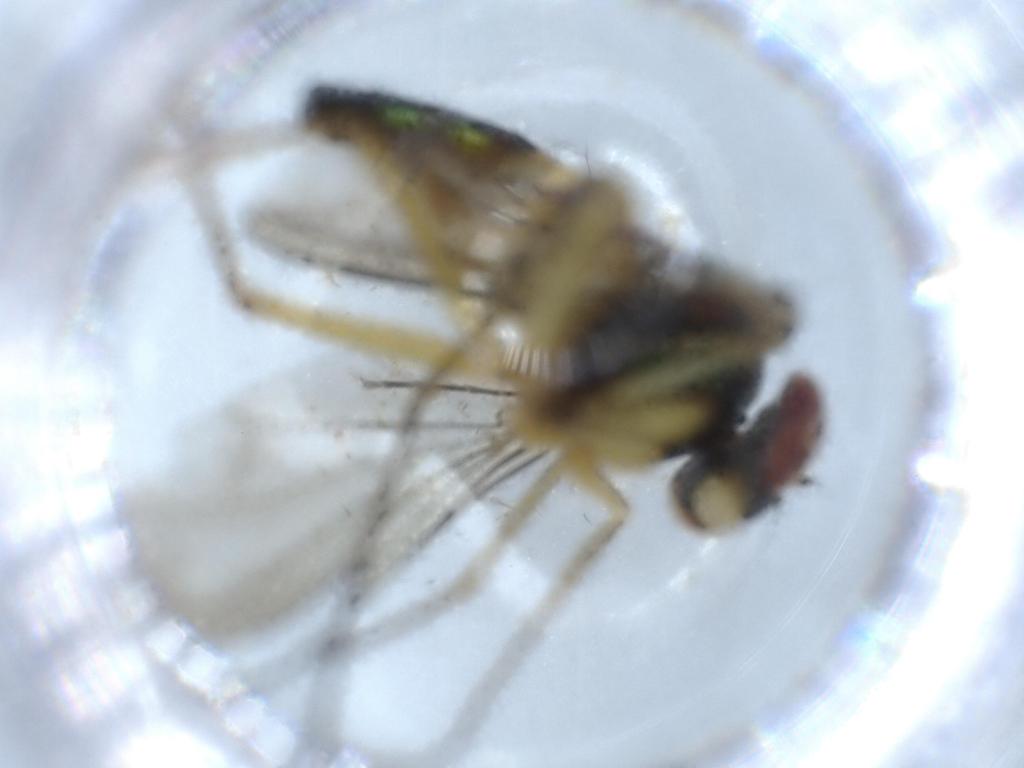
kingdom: Animalia
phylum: Arthropoda
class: Insecta
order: Diptera
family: Dolichopodidae
